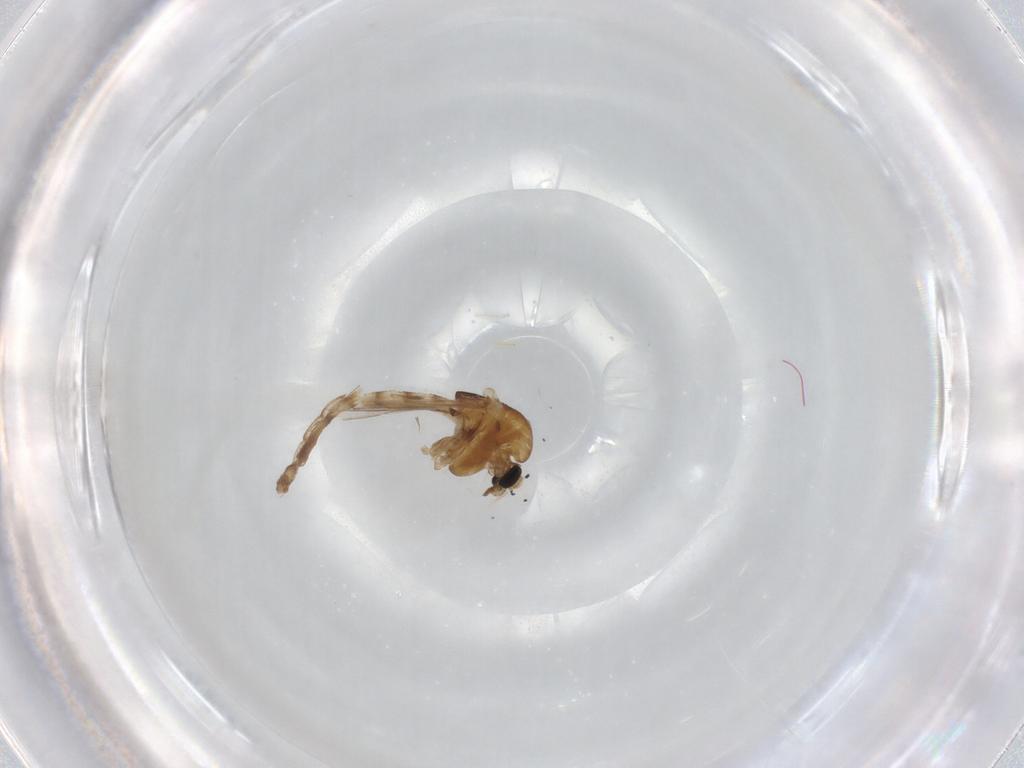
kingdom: Animalia
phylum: Arthropoda
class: Insecta
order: Diptera
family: Chironomidae
